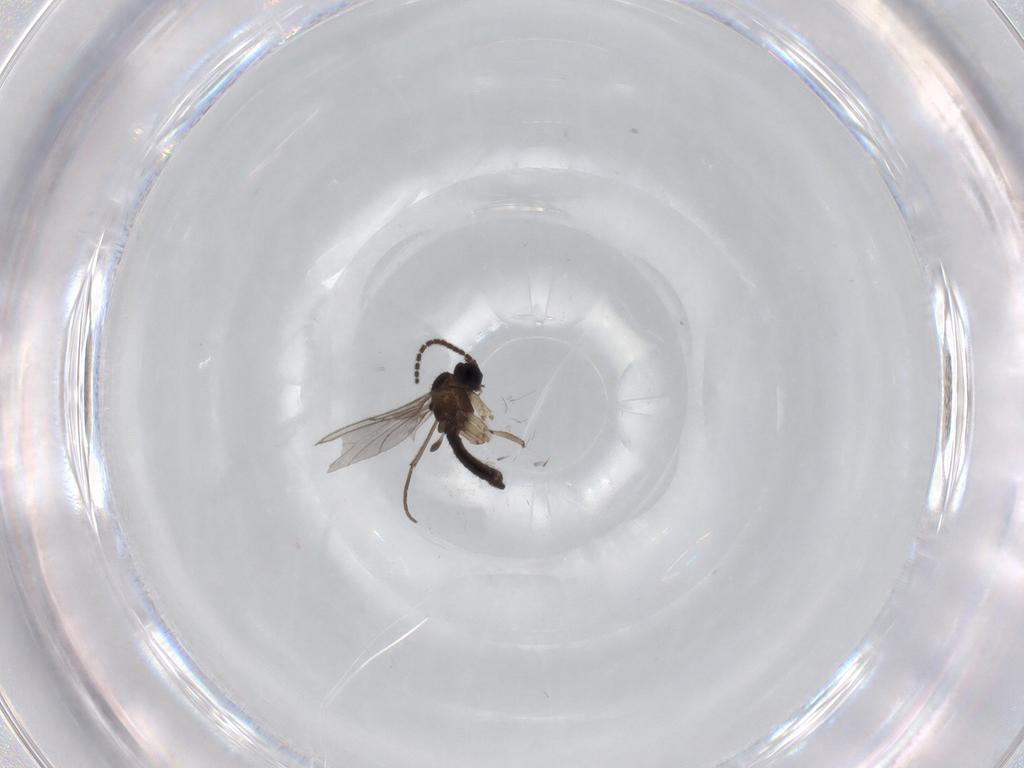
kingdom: Animalia
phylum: Arthropoda
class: Insecta
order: Diptera
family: Sciaridae
